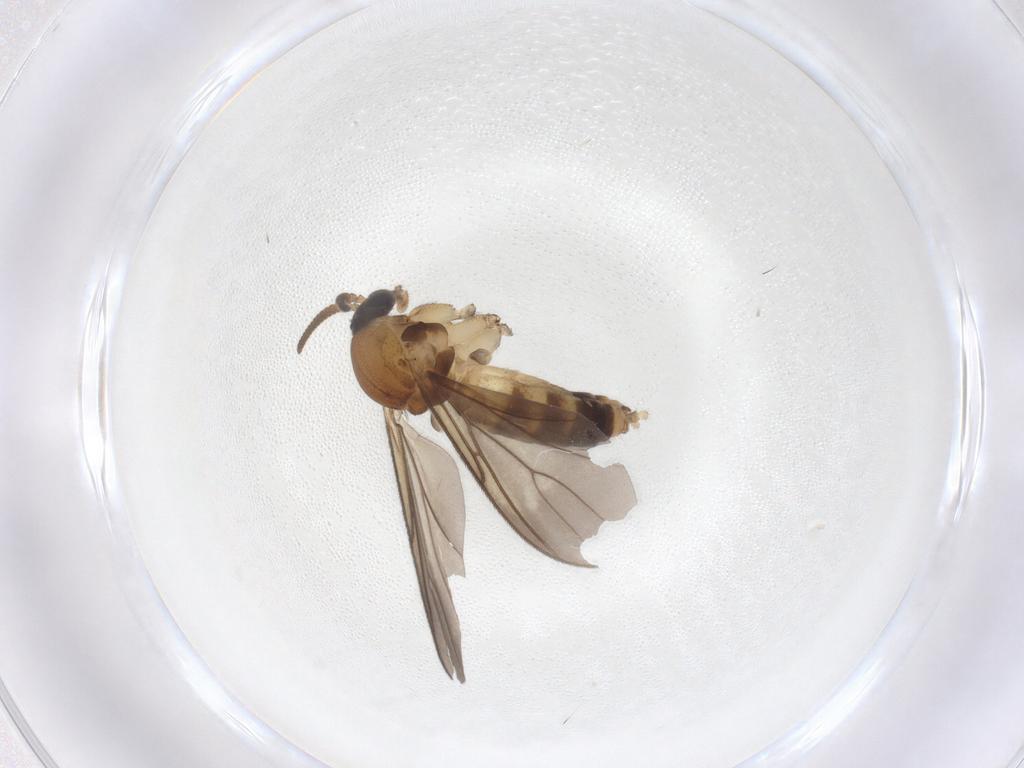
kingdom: Animalia
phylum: Arthropoda
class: Insecta
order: Diptera
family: Mycetophilidae
